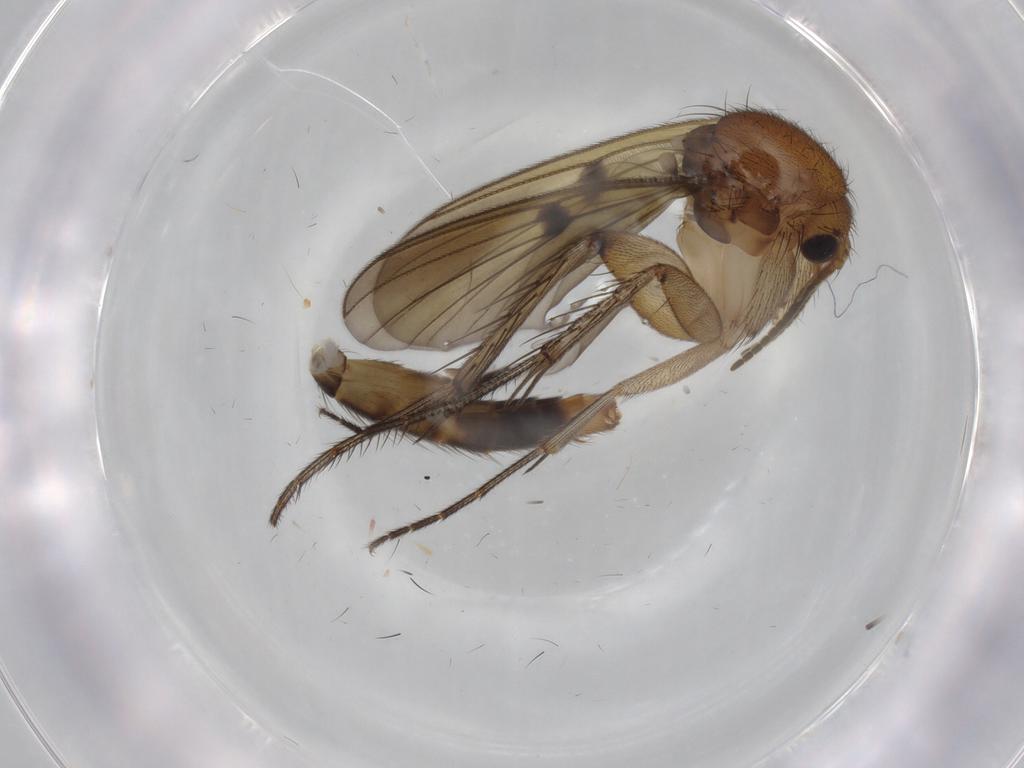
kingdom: Animalia
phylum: Arthropoda
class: Insecta
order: Diptera
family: Mycetophilidae
